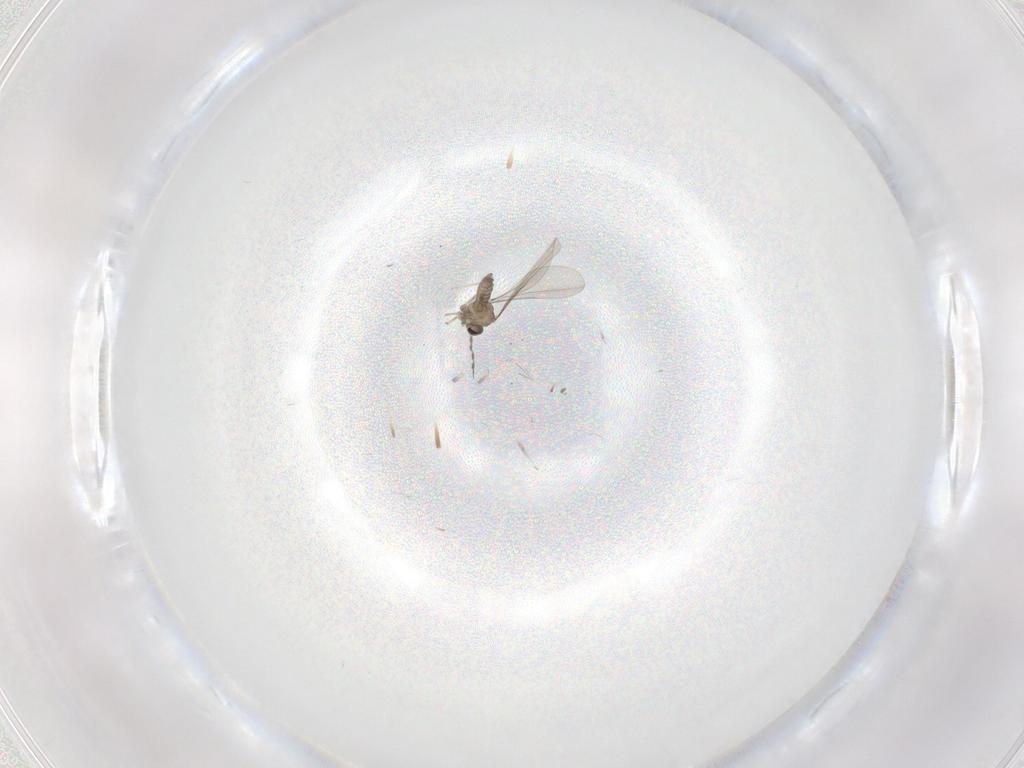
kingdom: Animalia
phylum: Arthropoda
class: Insecta
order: Diptera
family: Cecidomyiidae
